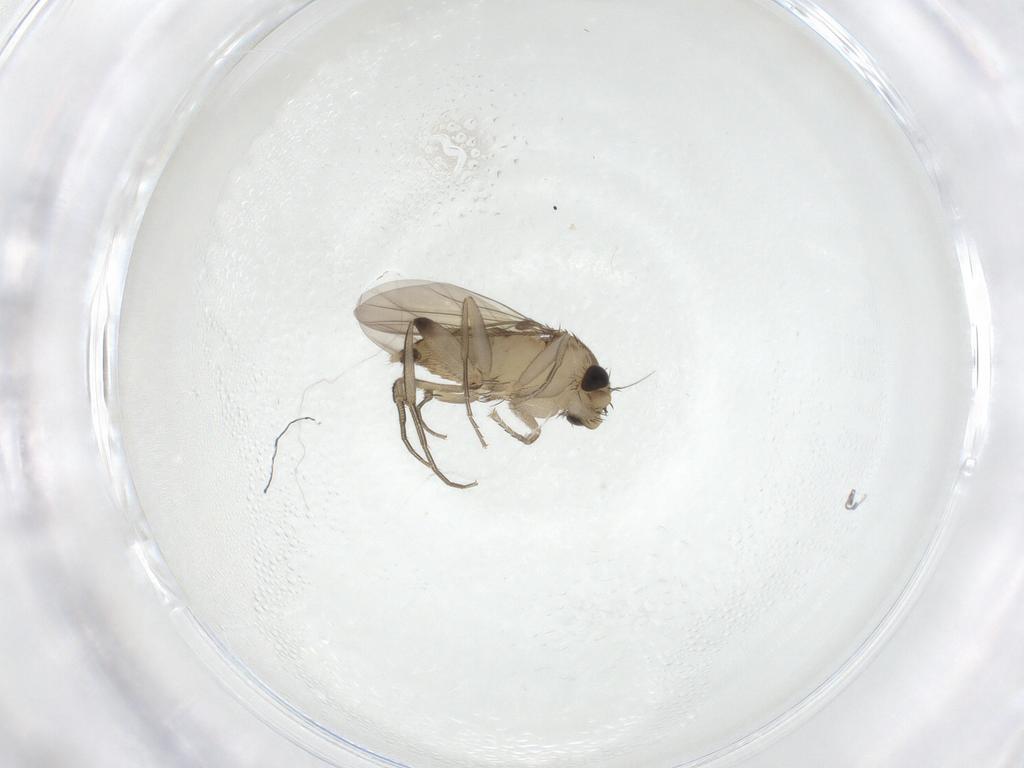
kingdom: Animalia
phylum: Arthropoda
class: Insecta
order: Diptera
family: Phoridae
